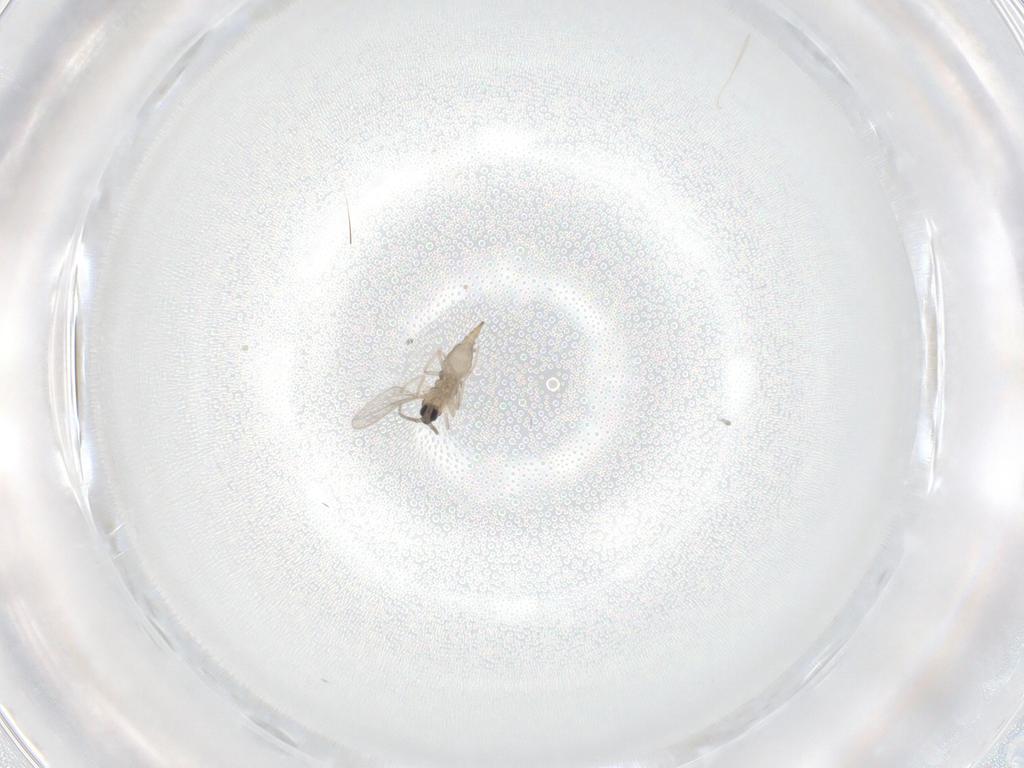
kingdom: Animalia
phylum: Arthropoda
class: Insecta
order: Diptera
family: Cecidomyiidae
